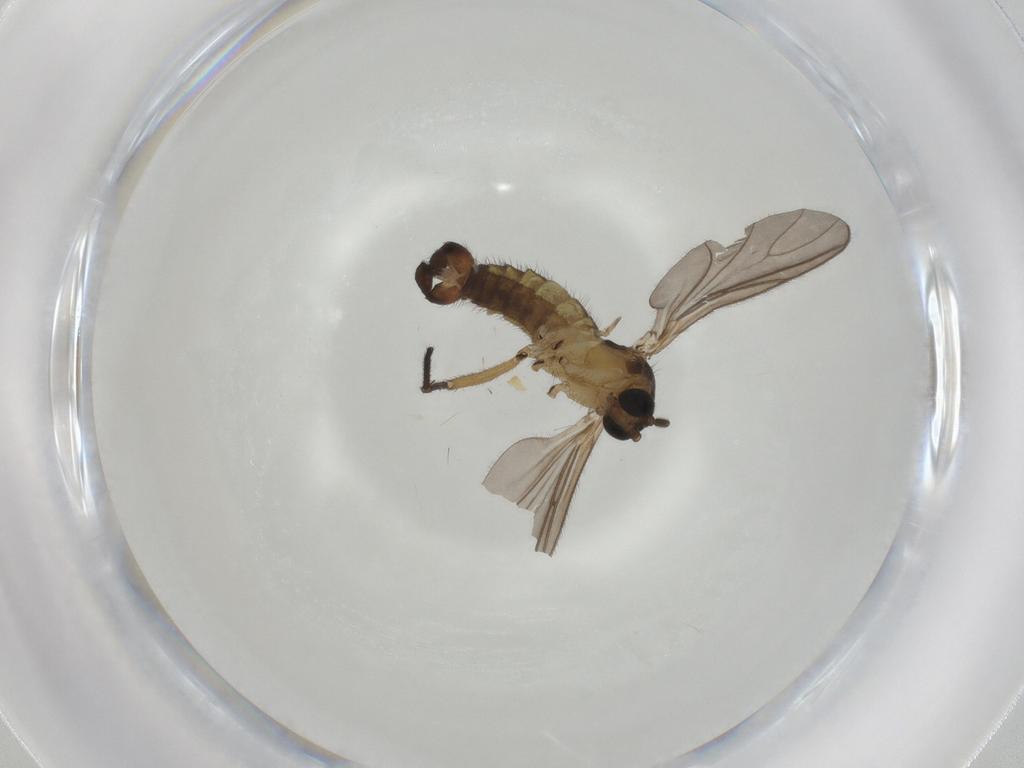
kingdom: Animalia
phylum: Arthropoda
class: Insecta
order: Diptera
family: Sciaridae
